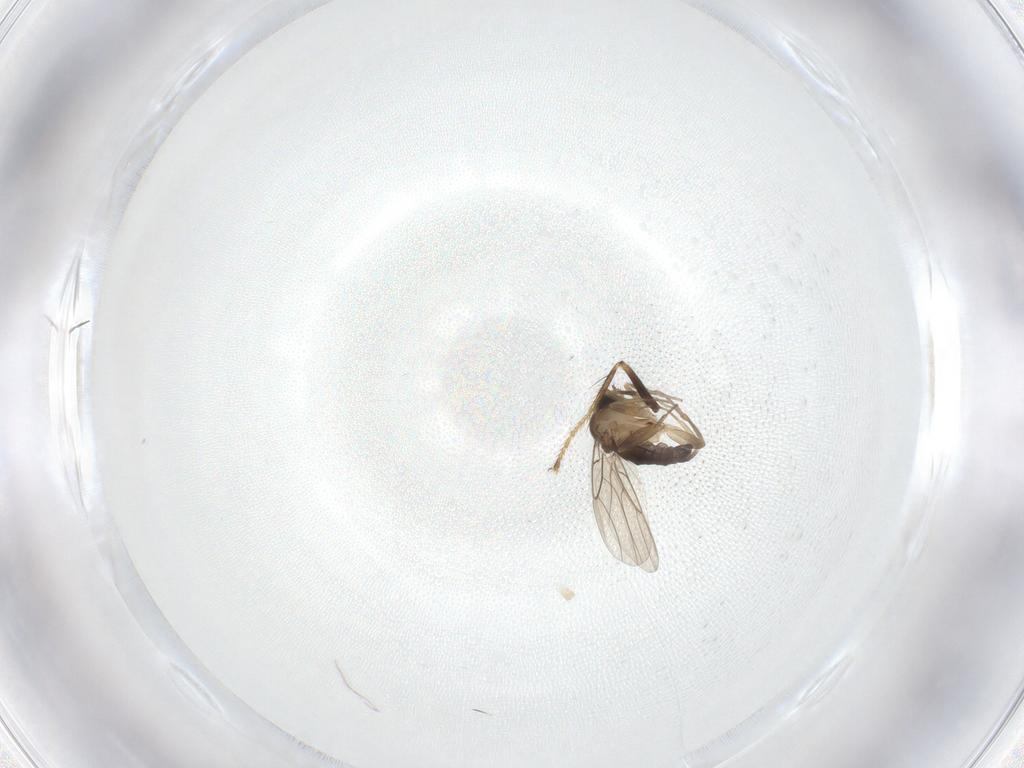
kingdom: Animalia
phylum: Arthropoda
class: Insecta
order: Diptera
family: Hybotidae
